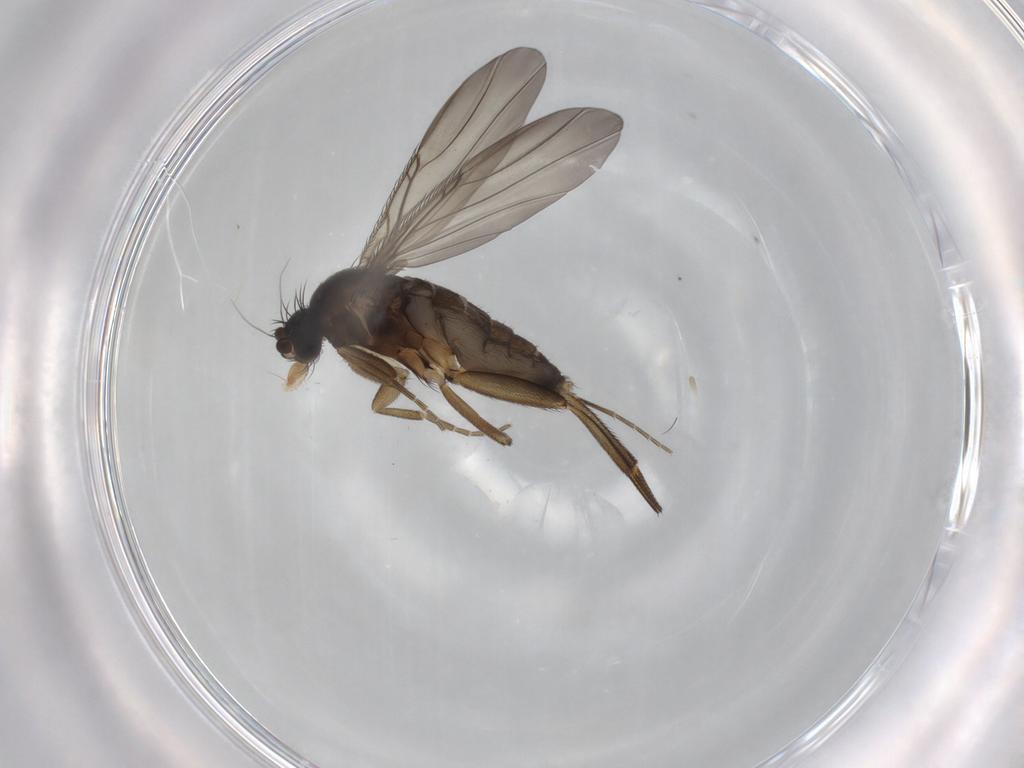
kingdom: Animalia
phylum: Arthropoda
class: Insecta
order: Diptera
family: Phoridae
